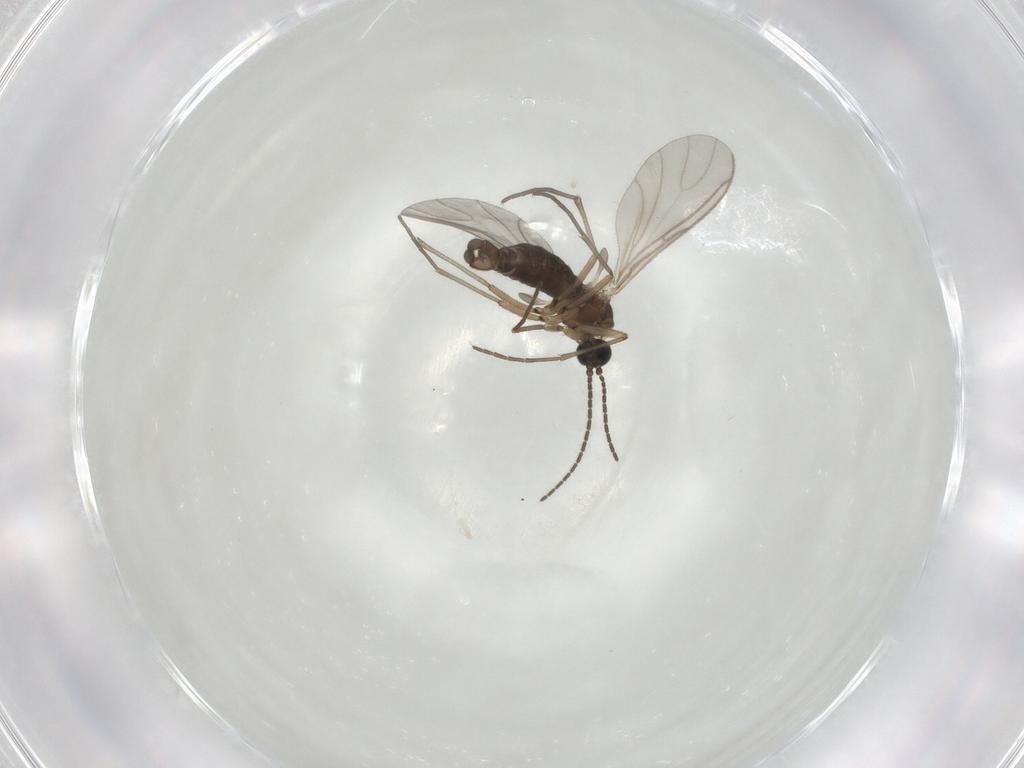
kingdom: Animalia
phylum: Arthropoda
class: Insecta
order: Diptera
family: Sciaridae
